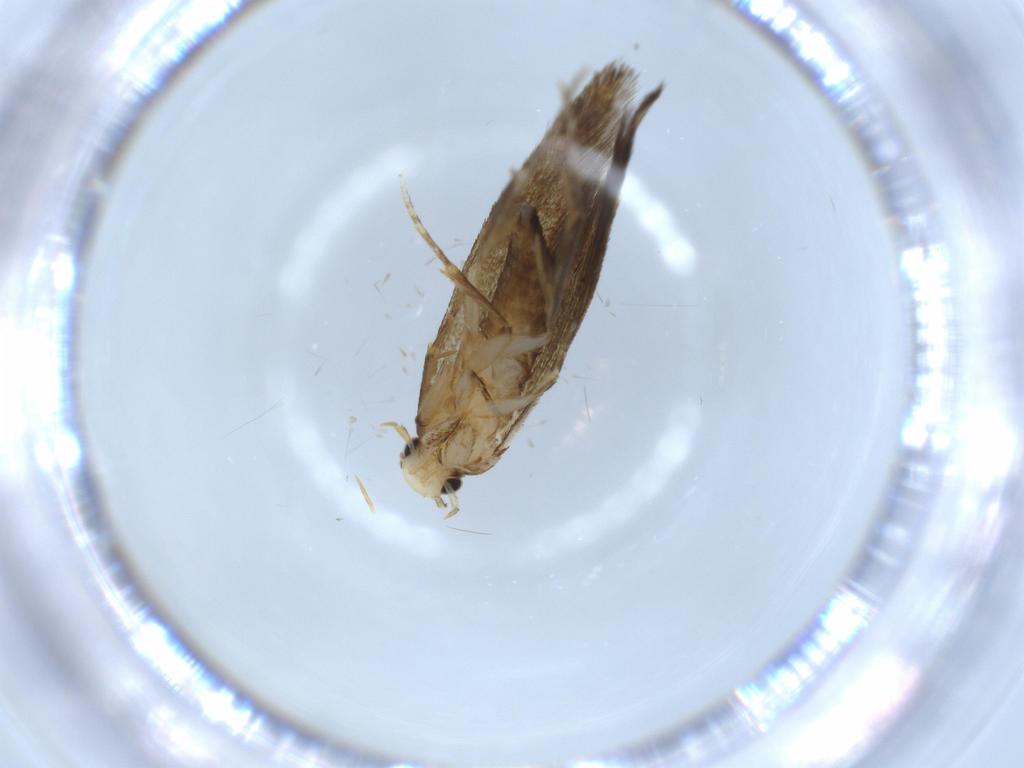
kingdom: Animalia
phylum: Arthropoda
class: Insecta
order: Lepidoptera
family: Tineidae
